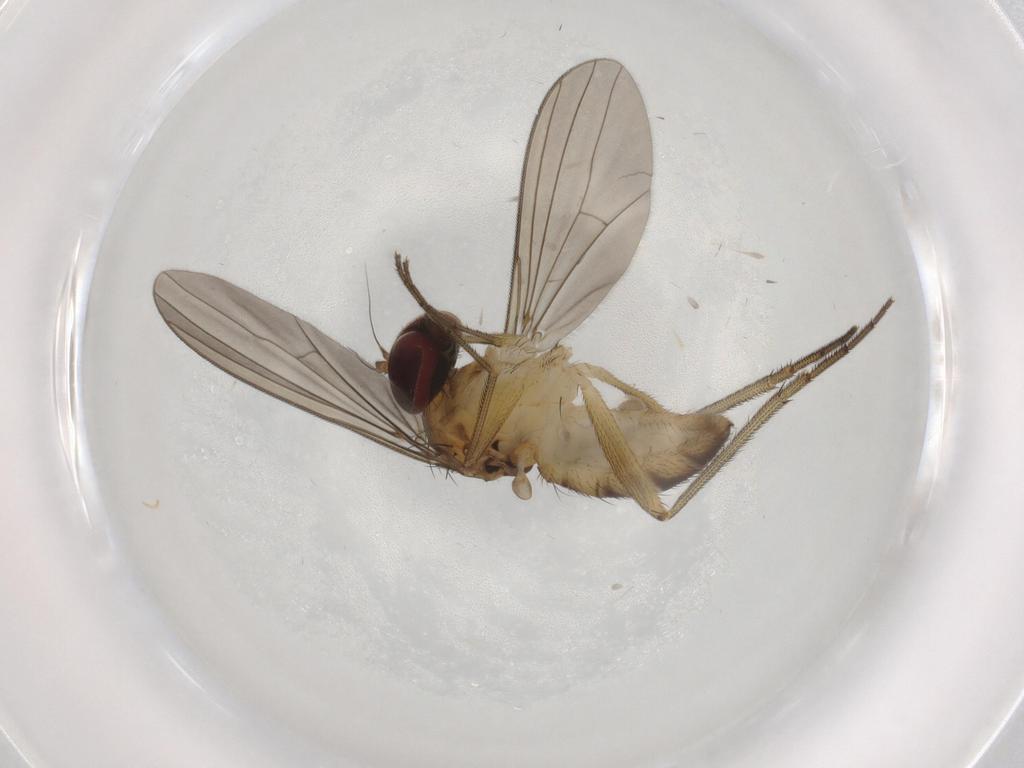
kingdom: Animalia
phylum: Arthropoda
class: Insecta
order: Diptera
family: Dolichopodidae
